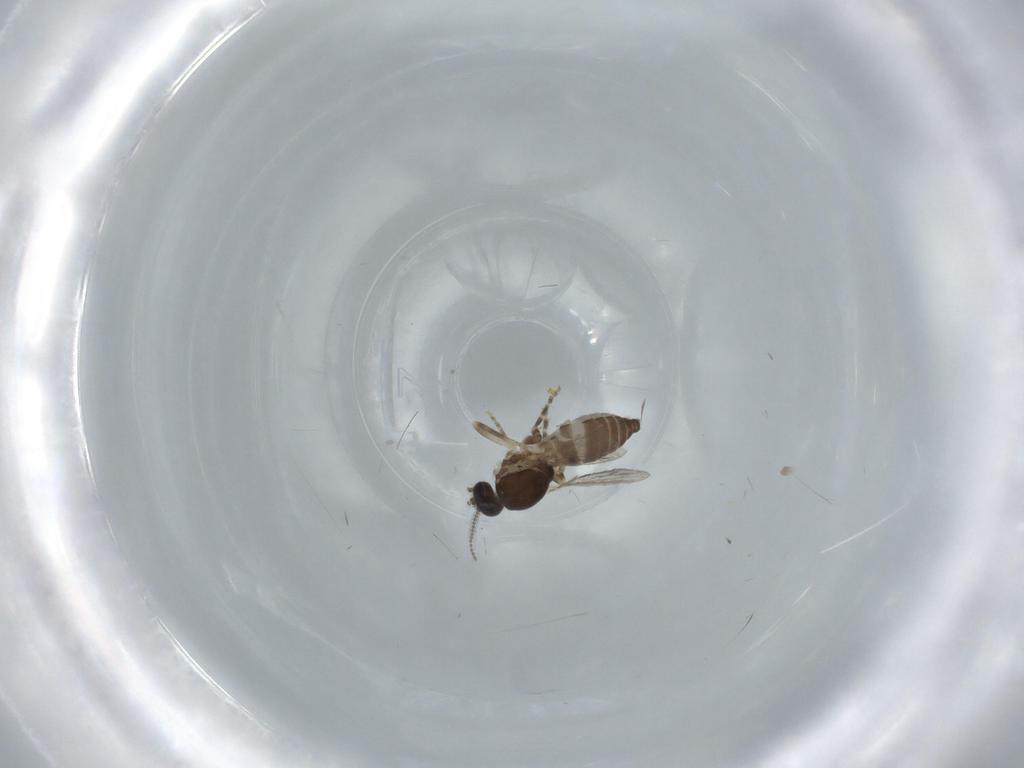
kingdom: Animalia
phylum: Arthropoda
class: Insecta
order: Diptera
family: Ceratopogonidae
